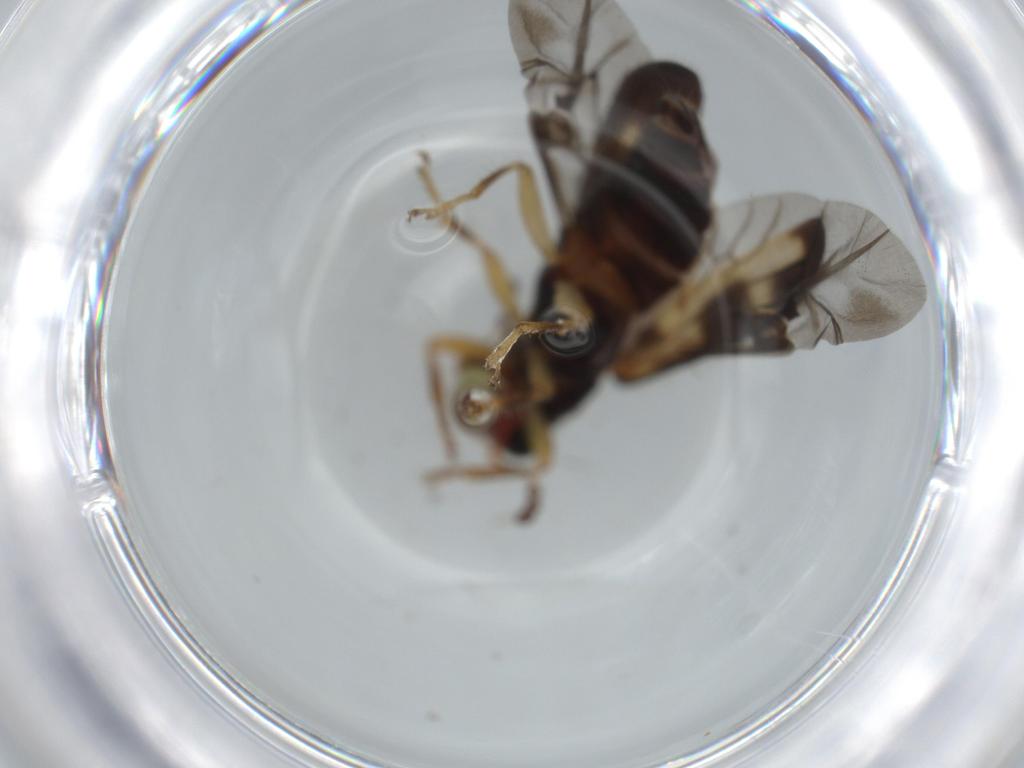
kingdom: Animalia
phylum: Arthropoda
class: Insecta
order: Coleoptera
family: Cleridae
